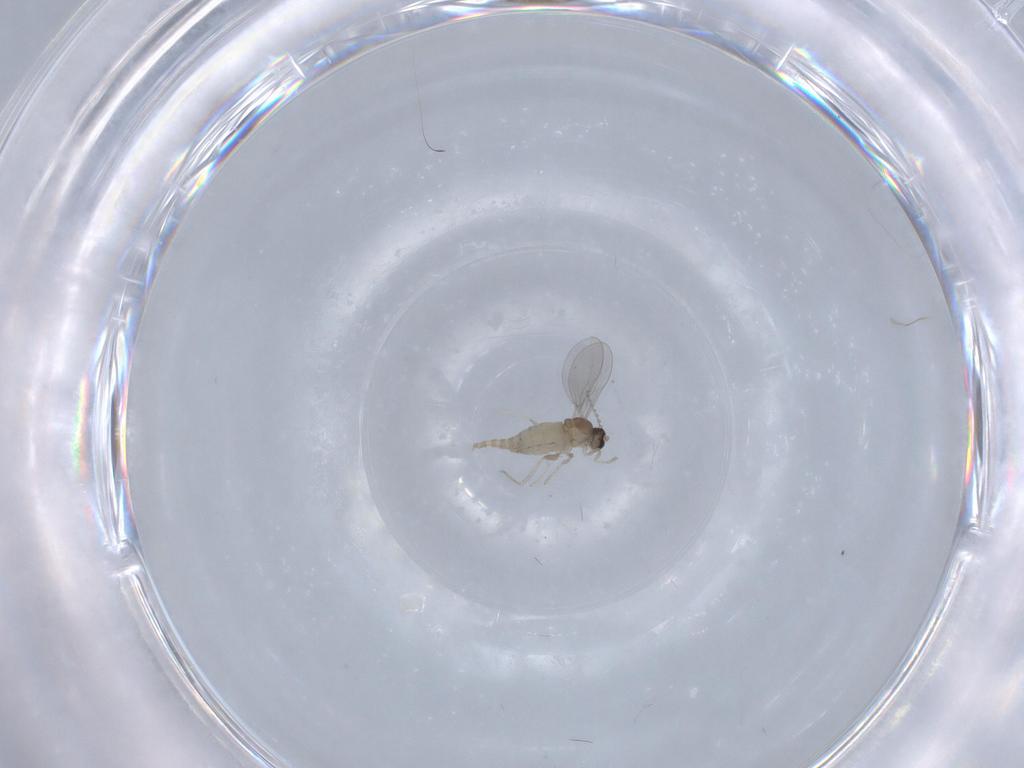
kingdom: Animalia
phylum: Arthropoda
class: Insecta
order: Diptera
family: Cecidomyiidae
